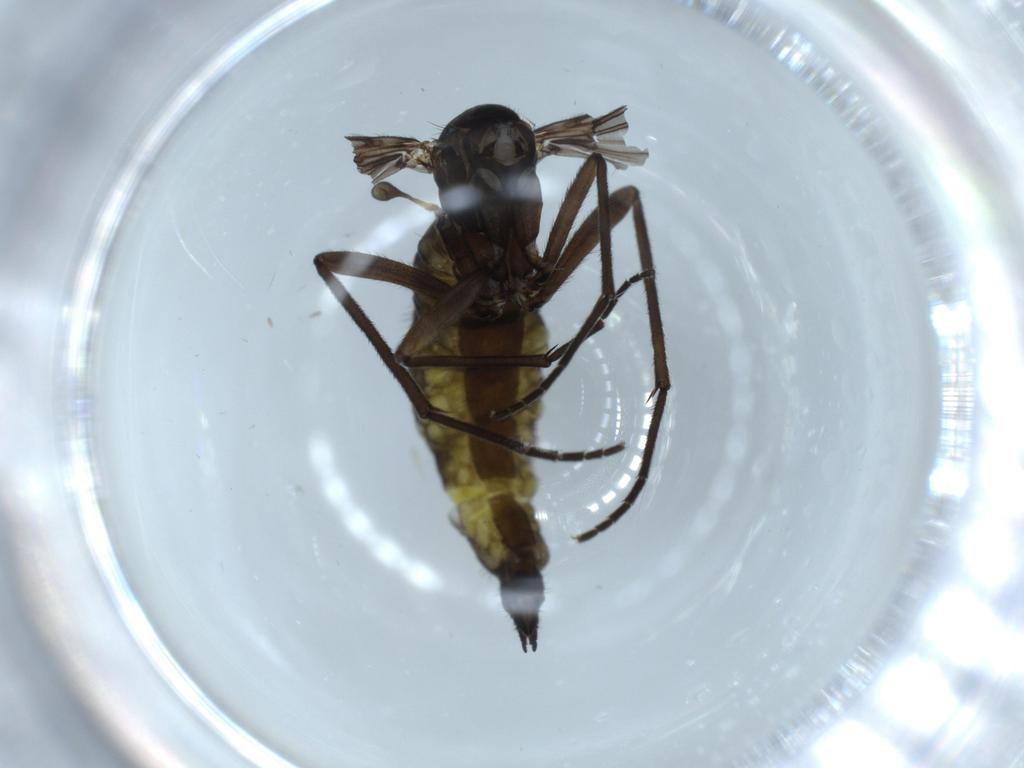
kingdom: Animalia
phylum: Arthropoda
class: Insecta
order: Diptera
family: Sciaridae
